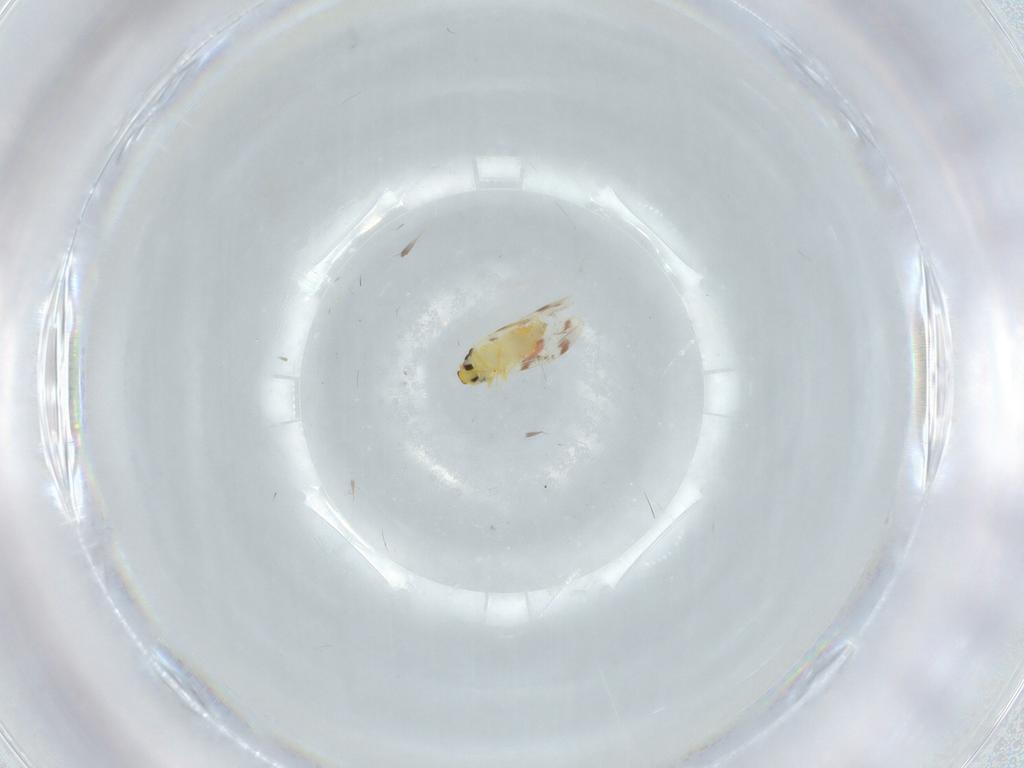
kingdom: Animalia
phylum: Arthropoda
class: Insecta
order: Hemiptera
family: Aleyrodidae
